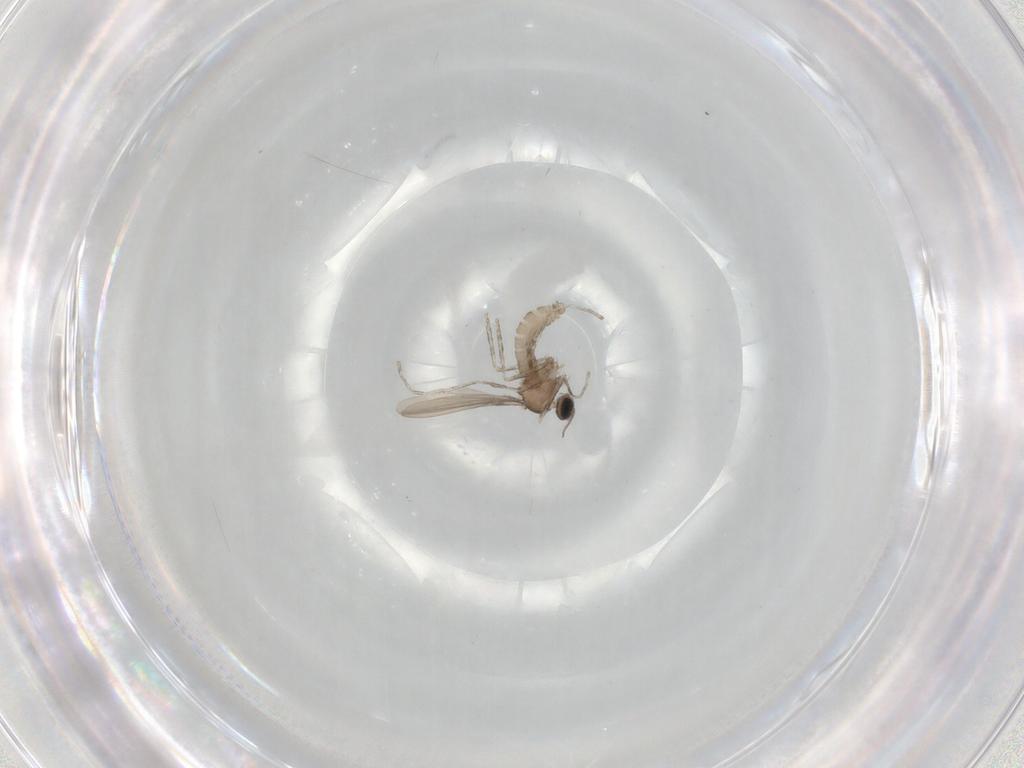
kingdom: Animalia
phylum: Arthropoda
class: Insecta
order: Diptera
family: Cecidomyiidae
